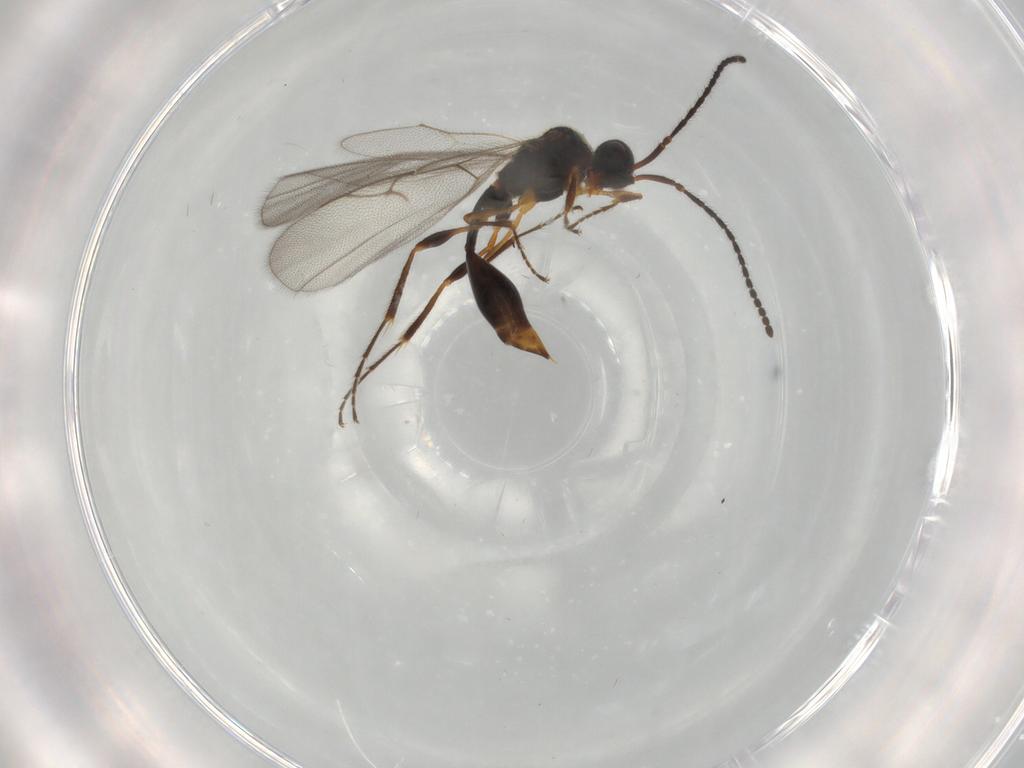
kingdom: Animalia
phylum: Arthropoda
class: Insecta
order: Hymenoptera
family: Diapriidae
